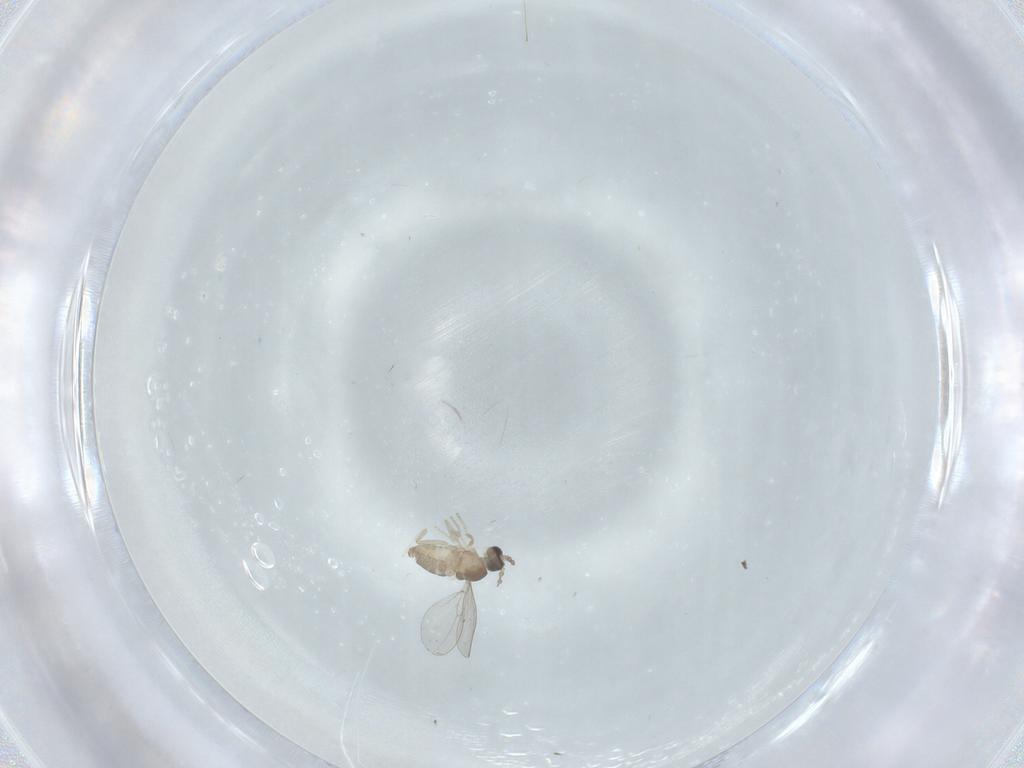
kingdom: Animalia
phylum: Arthropoda
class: Insecta
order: Diptera
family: Cecidomyiidae
